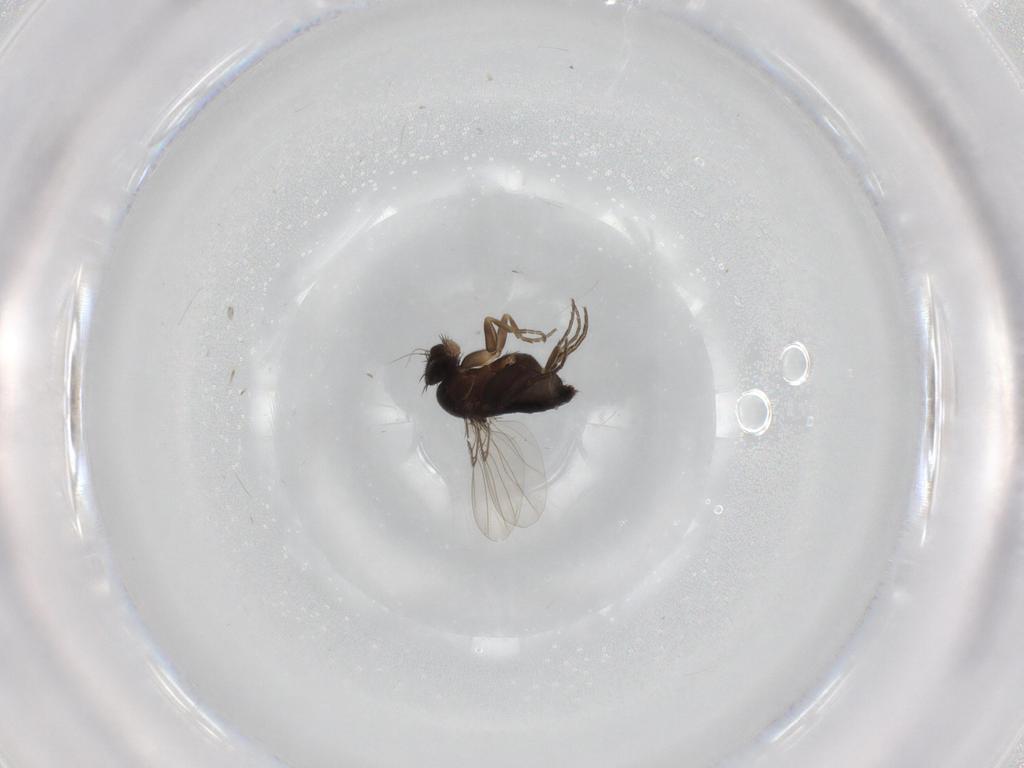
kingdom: Animalia
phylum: Arthropoda
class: Insecta
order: Diptera
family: Phoridae
